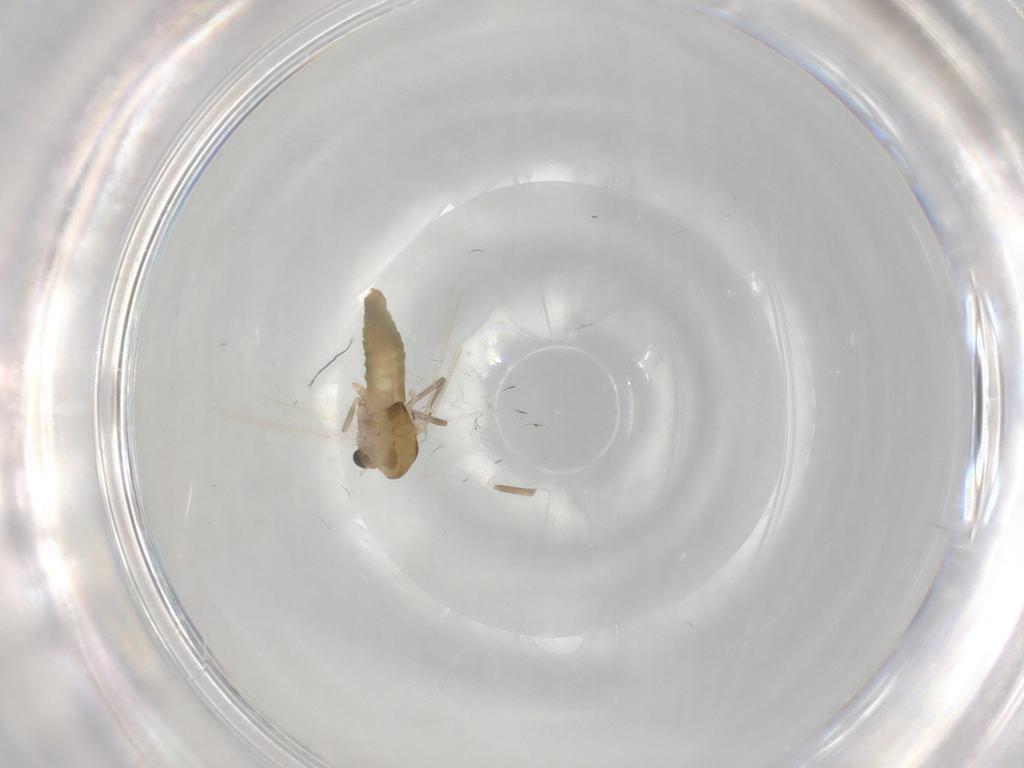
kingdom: Animalia
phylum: Arthropoda
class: Insecta
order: Diptera
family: Chironomidae
